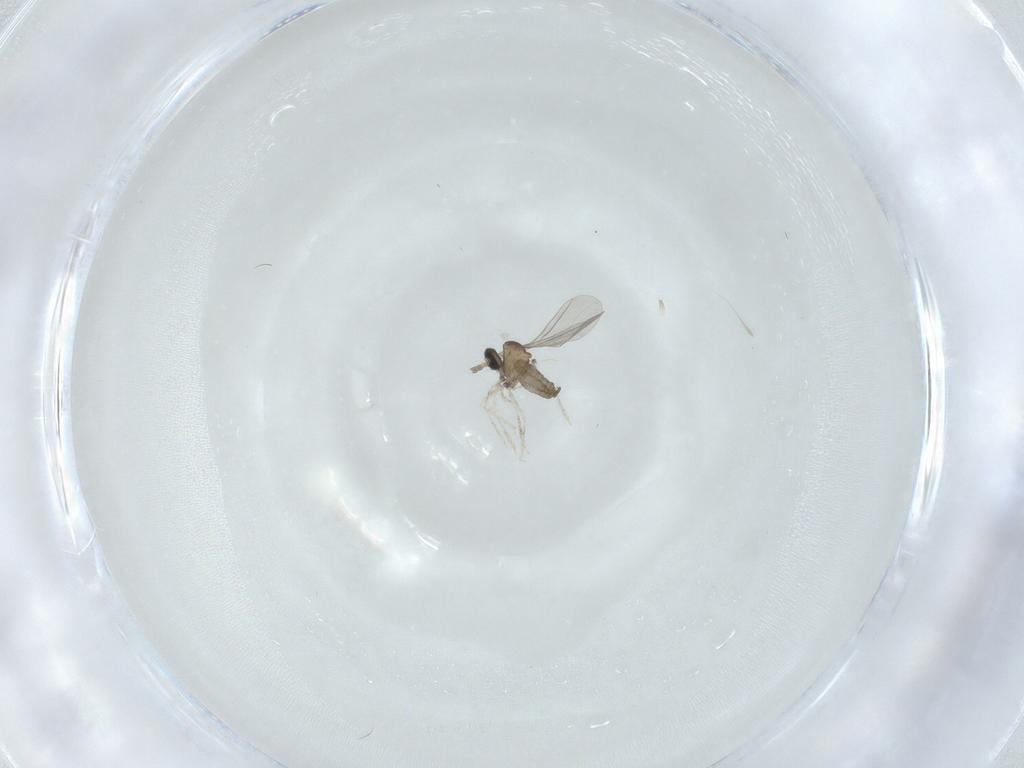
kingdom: Animalia
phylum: Arthropoda
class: Insecta
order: Diptera
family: Cecidomyiidae
